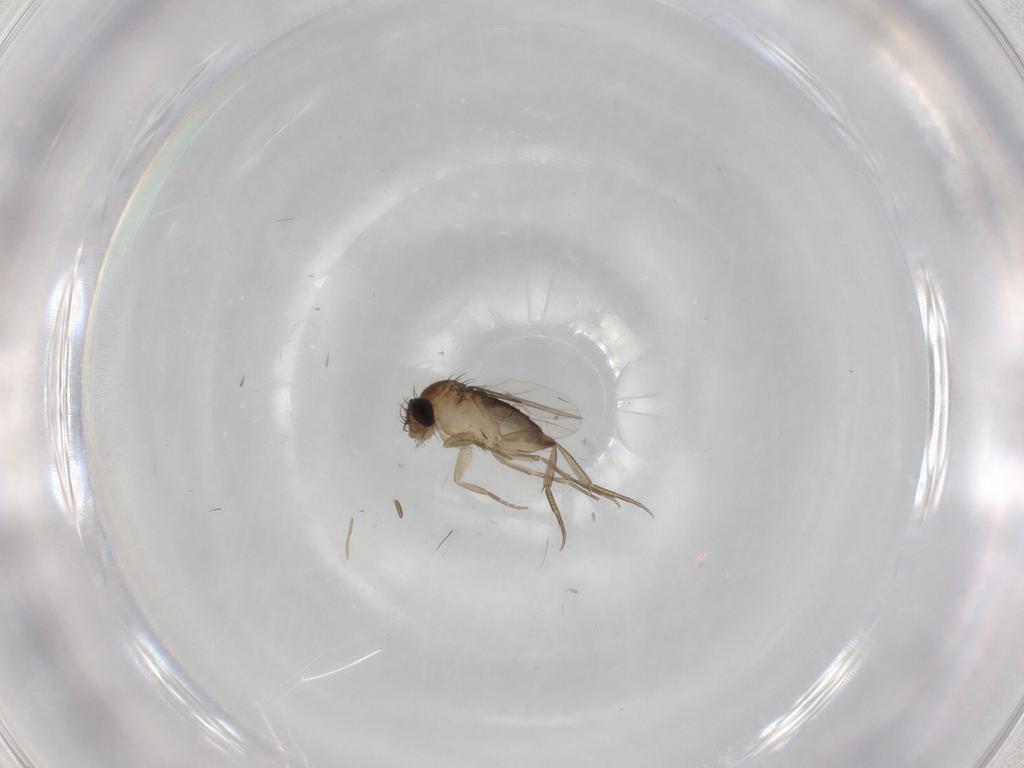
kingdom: Animalia
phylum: Arthropoda
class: Insecta
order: Diptera
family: Phoridae
